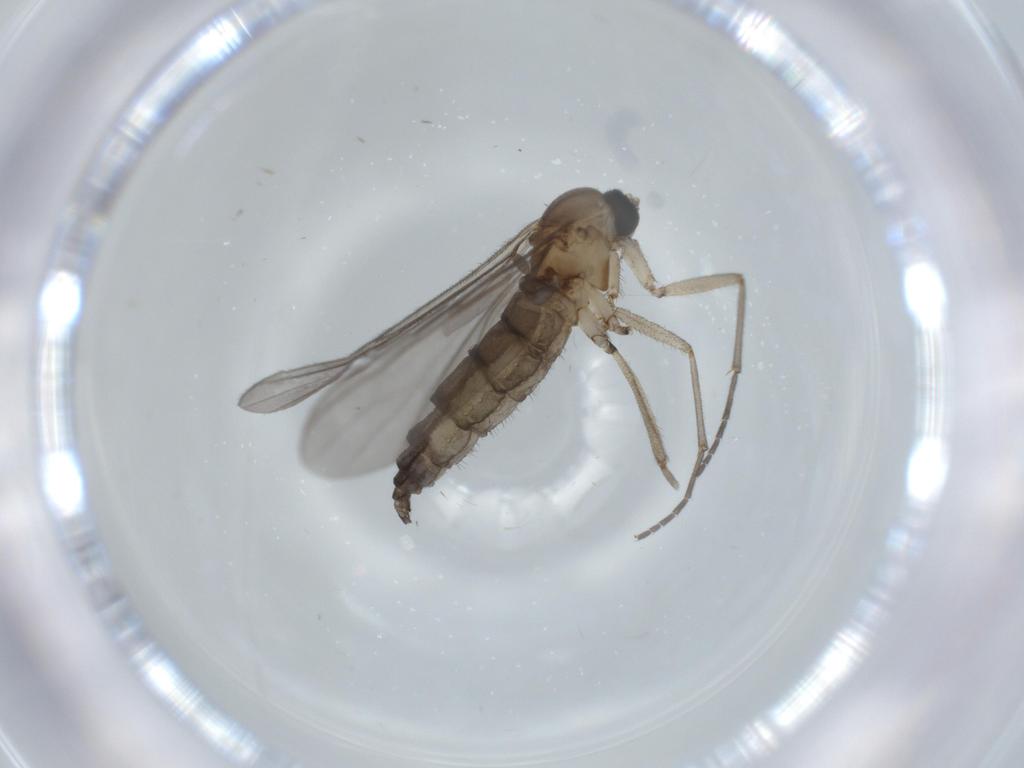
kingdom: Animalia
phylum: Arthropoda
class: Insecta
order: Diptera
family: Sciaridae
